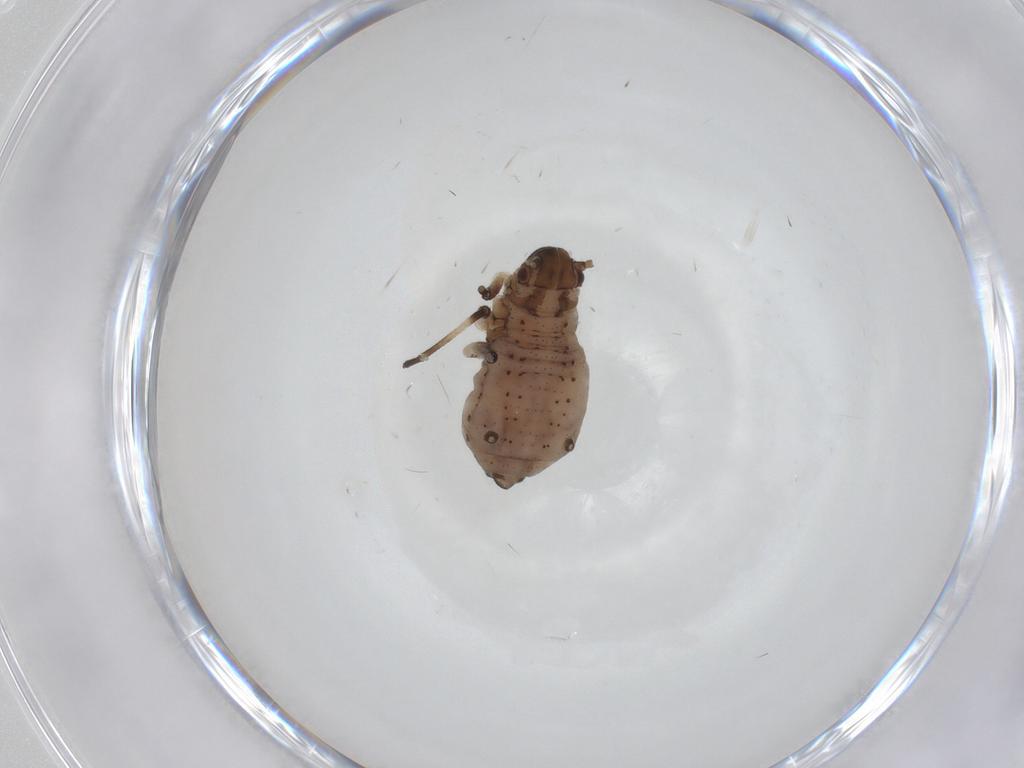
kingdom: Animalia
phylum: Arthropoda
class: Insecta
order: Hemiptera
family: Aphididae
